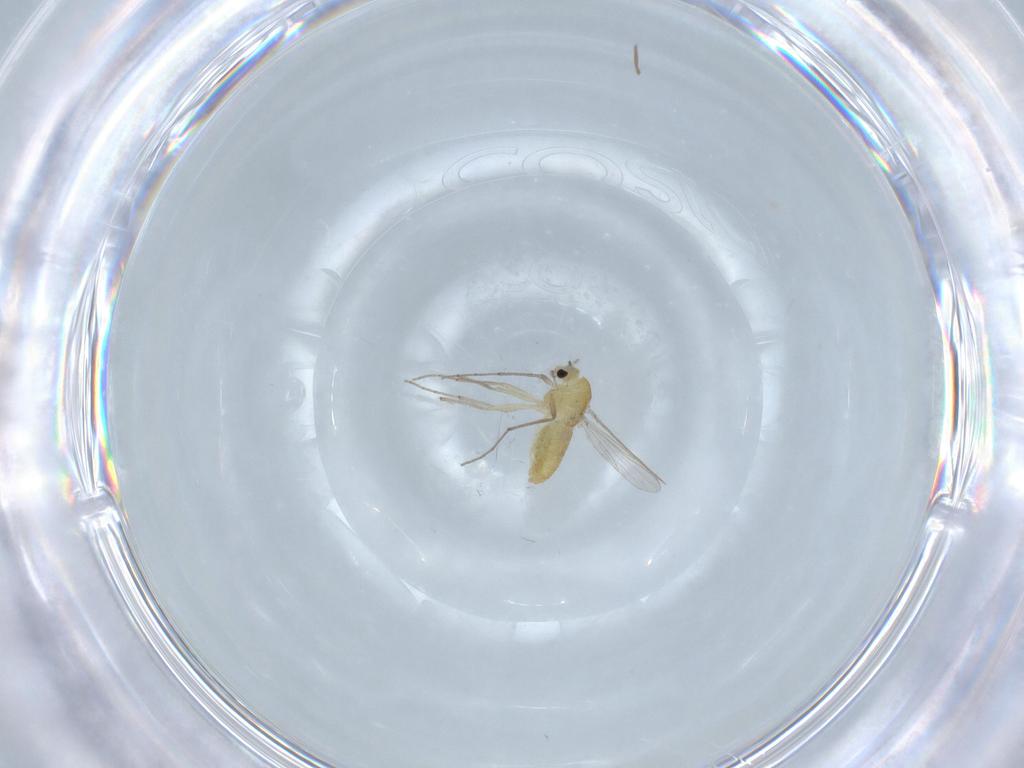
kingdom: Animalia
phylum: Arthropoda
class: Insecta
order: Diptera
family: Chironomidae
